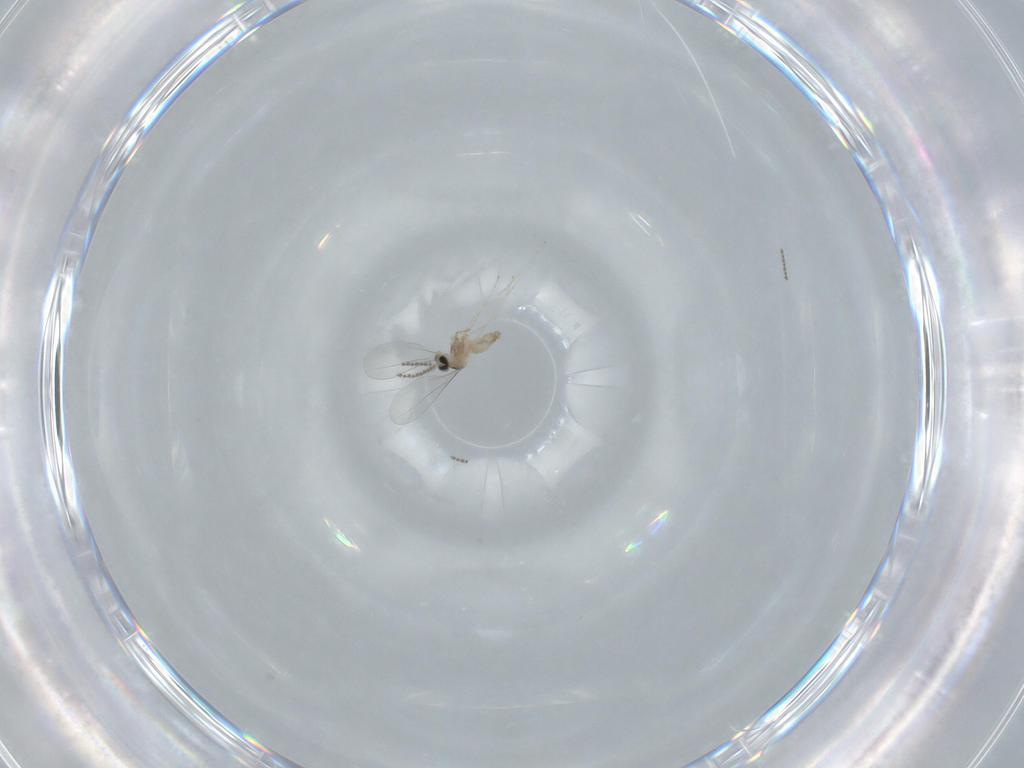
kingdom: Animalia
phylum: Arthropoda
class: Insecta
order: Diptera
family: Cecidomyiidae
